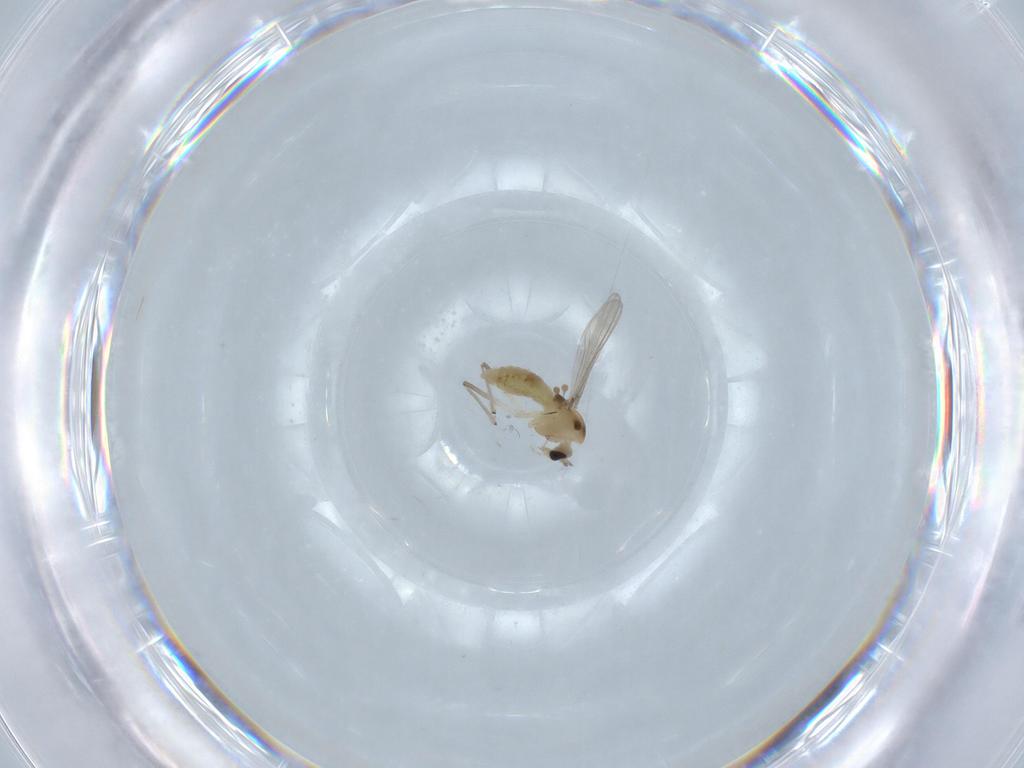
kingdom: Animalia
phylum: Arthropoda
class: Insecta
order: Diptera
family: Chironomidae
